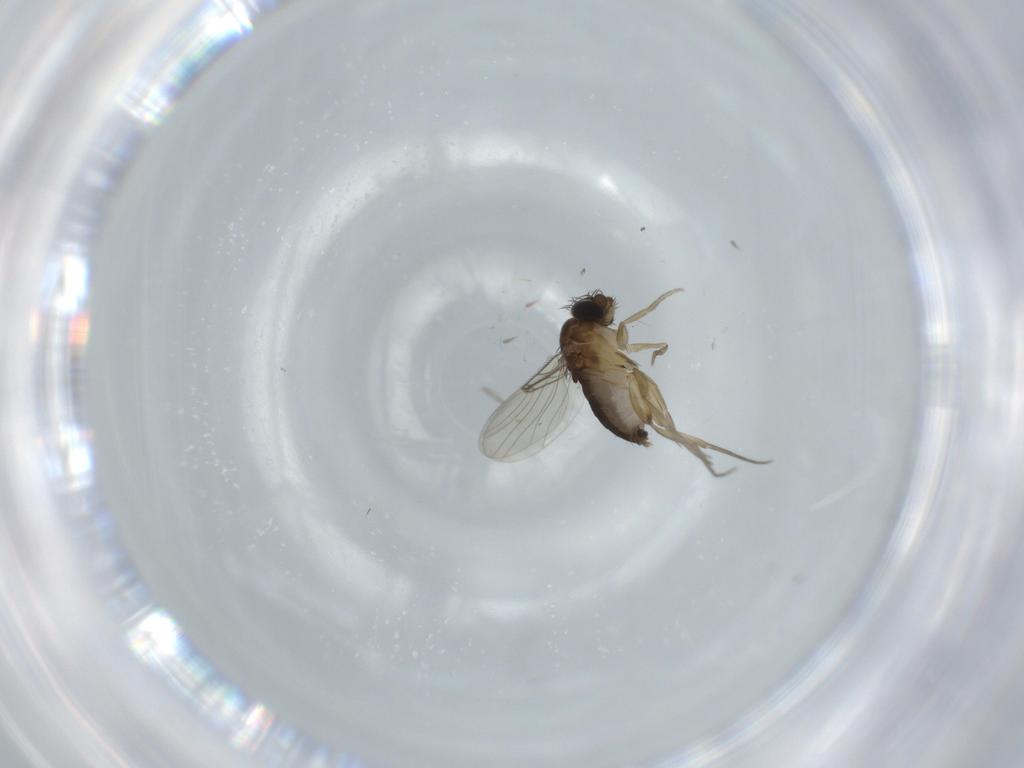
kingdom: Animalia
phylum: Arthropoda
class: Insecta
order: Diptera
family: Phoridae
